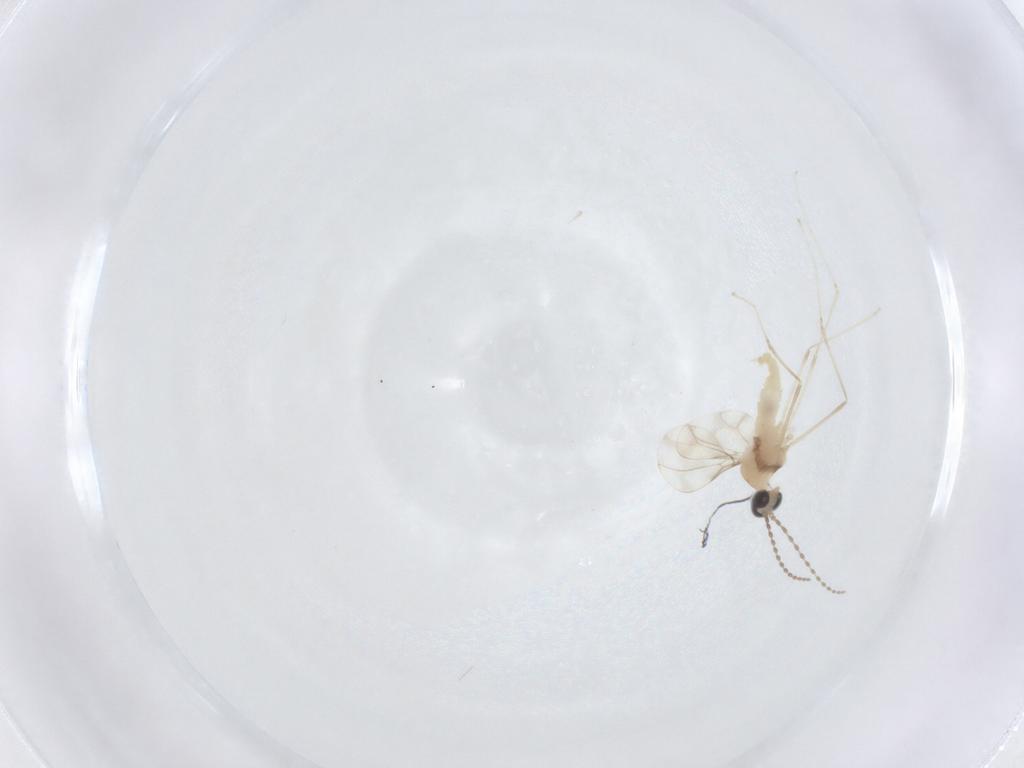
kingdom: Animalia
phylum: Arthropoda
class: Insecta
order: Diptera
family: Cecidomyiidae
